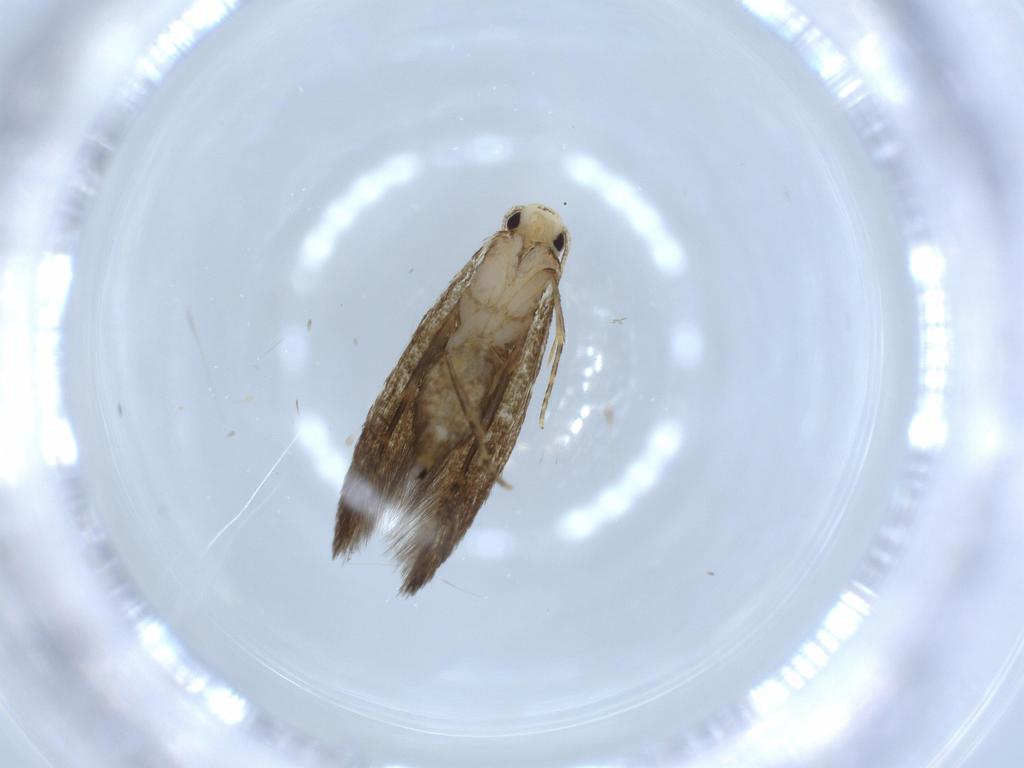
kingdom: Animalia
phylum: Arthropoda
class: Insecta
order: Lepidoptera
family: Tineidae
